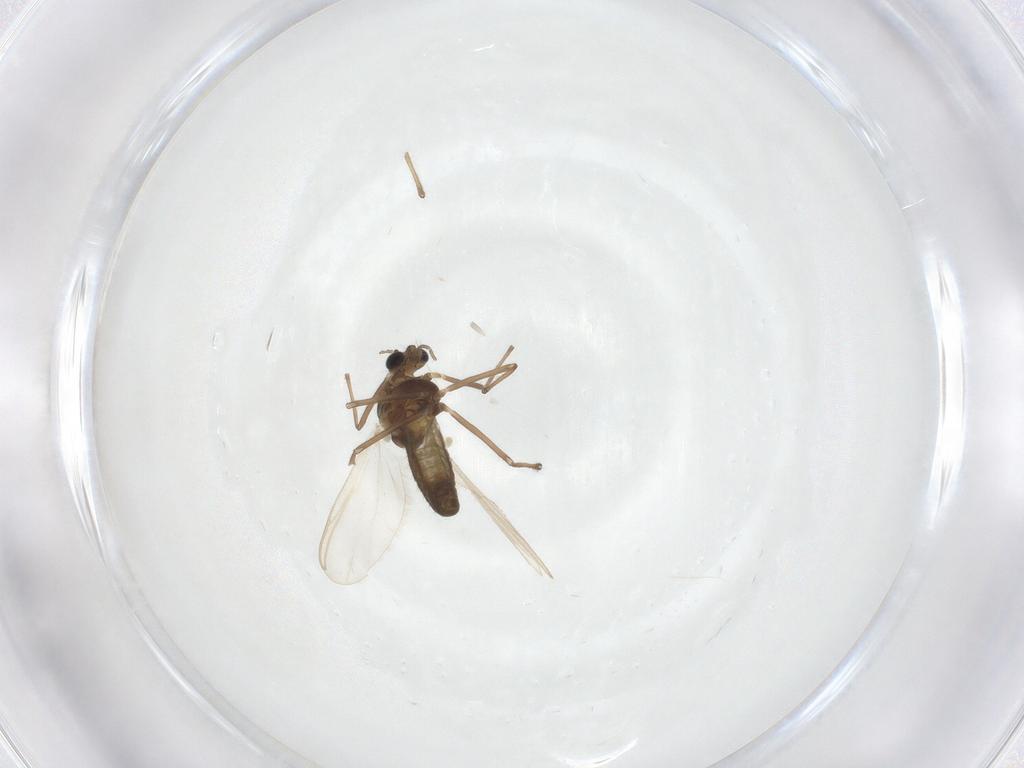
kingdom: Animalia
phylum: Arthropoda
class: Insecta
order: Diptera
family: Chironomidae
